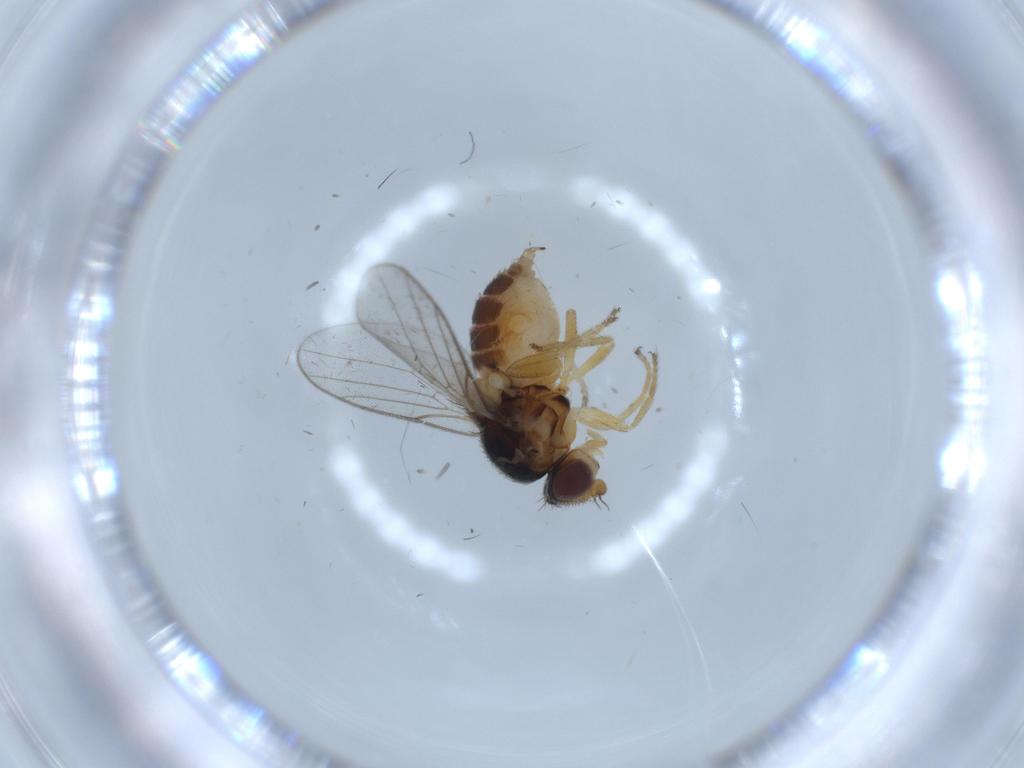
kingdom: Animalia
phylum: Arthropoda
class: Insecta
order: Diptera
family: Chloropidae
